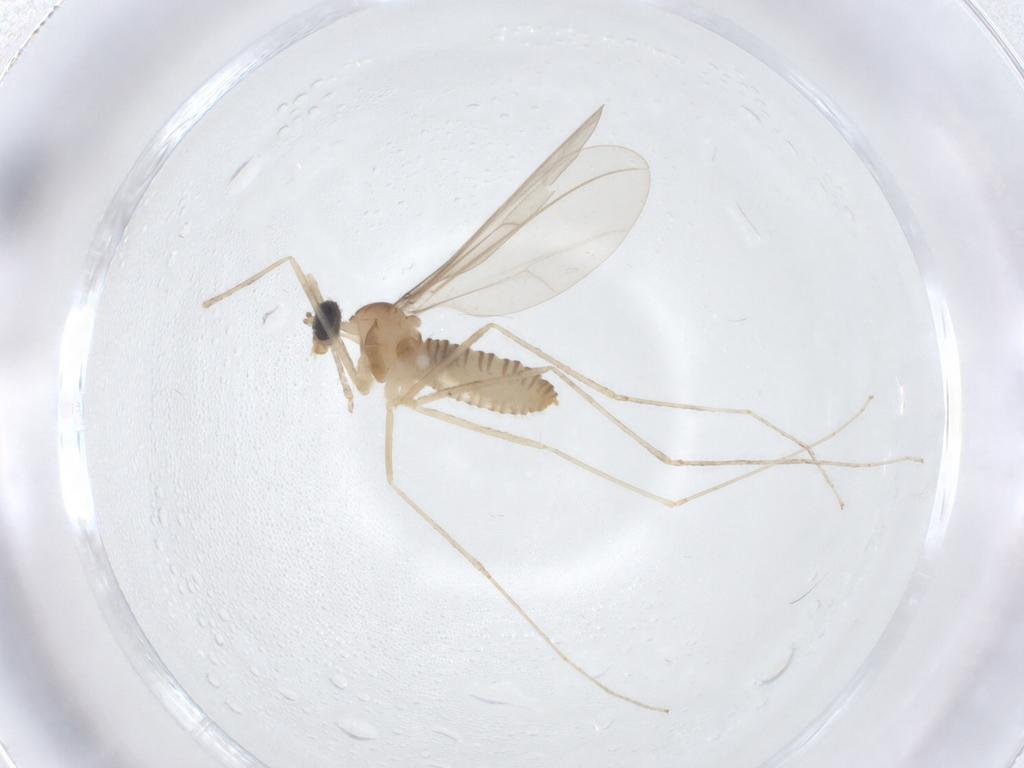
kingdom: Animalia
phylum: Arthropoda
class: Insecta
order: Diptera
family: Cecidomyiidae
